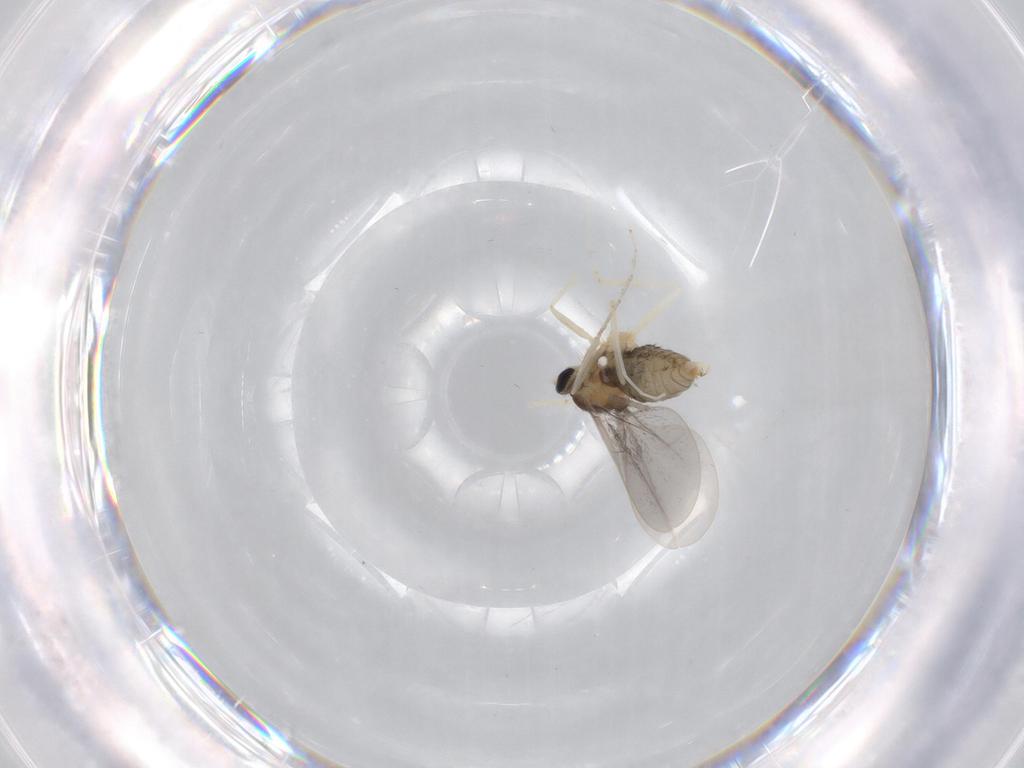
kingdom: Animalia
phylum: Arthropoda
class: Insecta
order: Diptera
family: Cecidomyiidae
